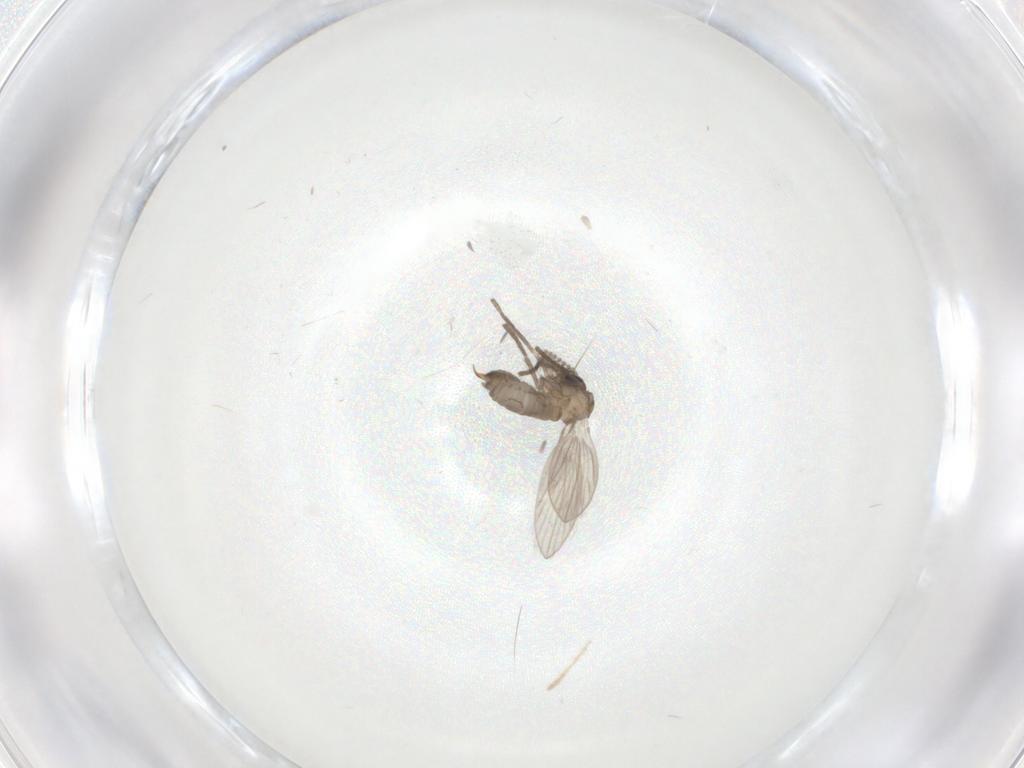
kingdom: Animalia
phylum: Arthropoda
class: Insecta
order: Diptera
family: Psychodidae
